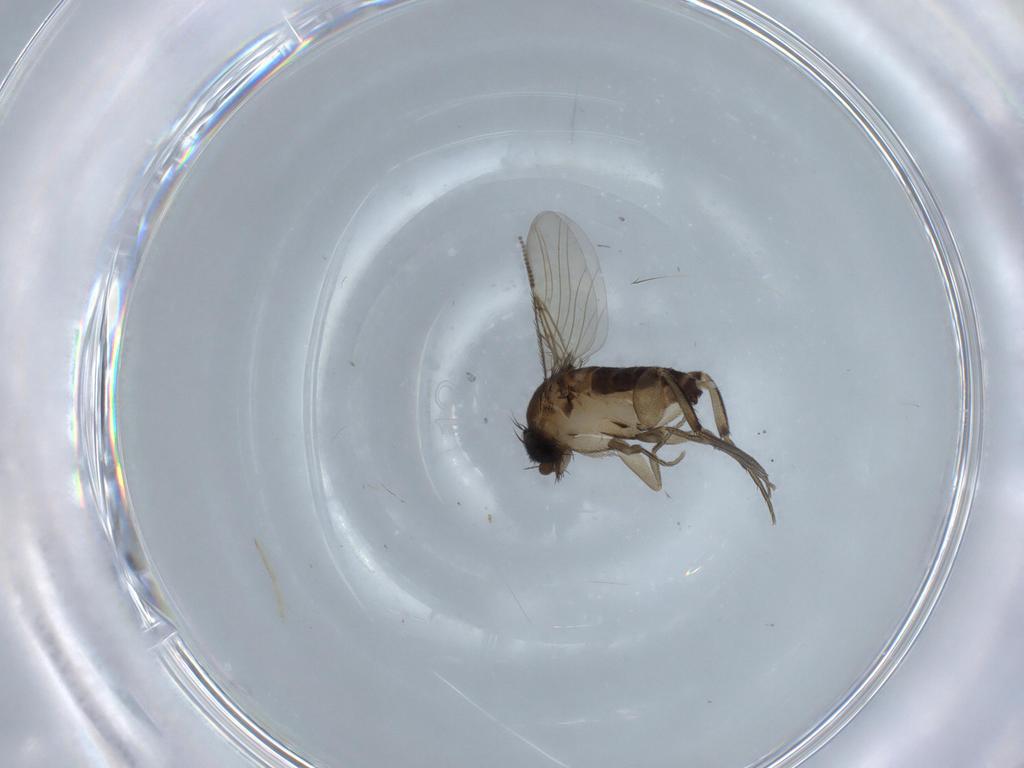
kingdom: Animalia
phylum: Arthropoda
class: Insecta
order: Diptera
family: Phoridae
